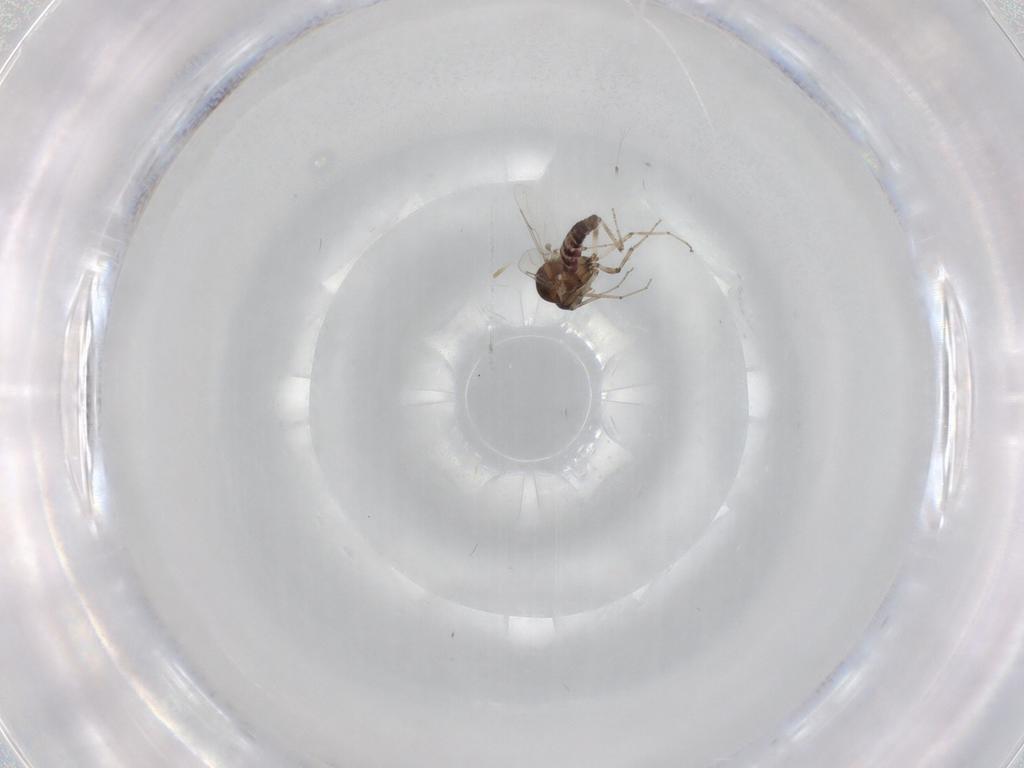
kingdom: Animalia
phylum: Arthropoda
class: Insecta
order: Diptera
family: Ceratopogonidae
